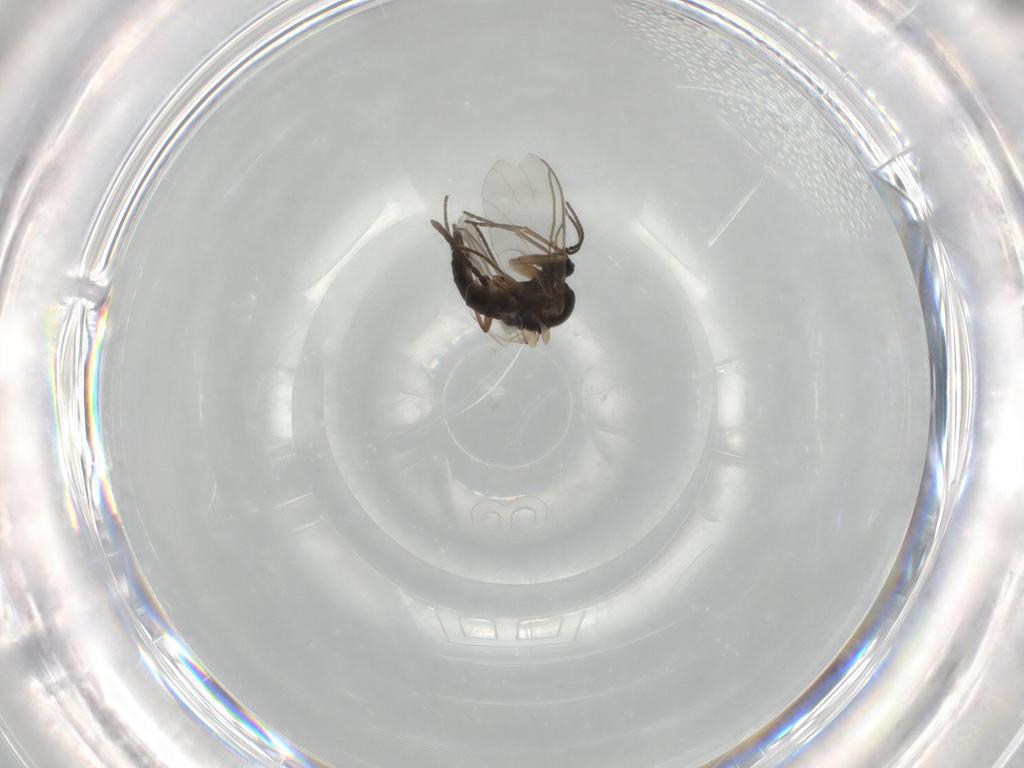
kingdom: Animalia
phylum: Arthropoda
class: Insecta
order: Diptera
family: Sciaridae
